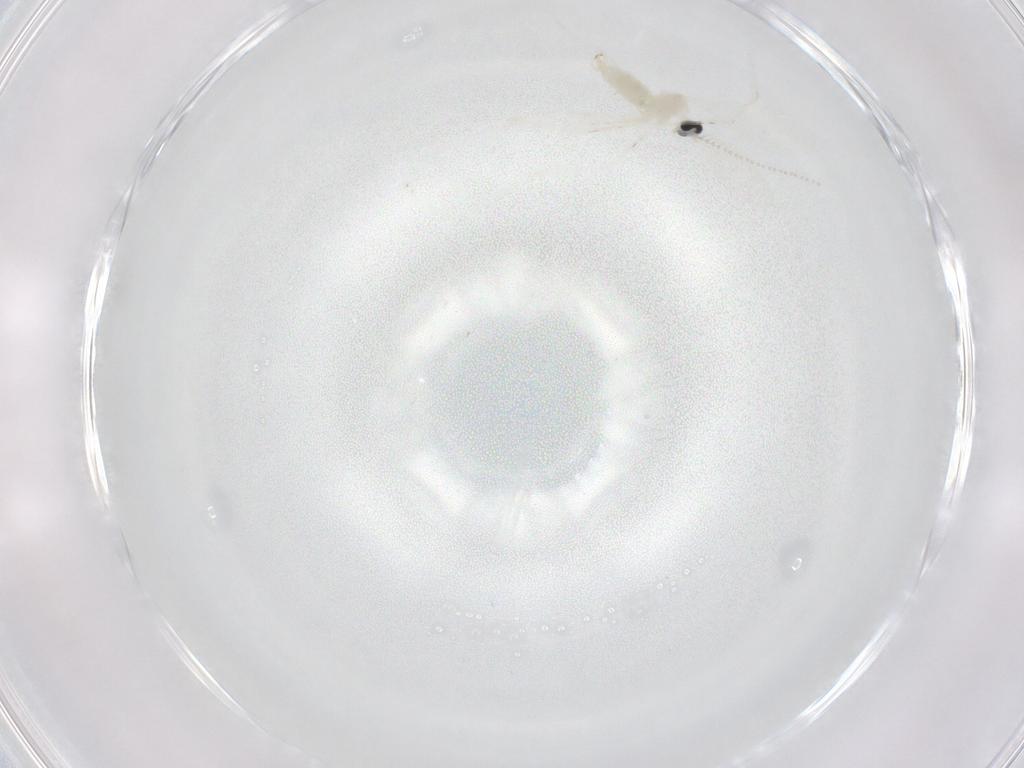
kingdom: Animalia
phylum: Arthropoda
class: Insecta
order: Diptera
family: Cecidomyiidae
